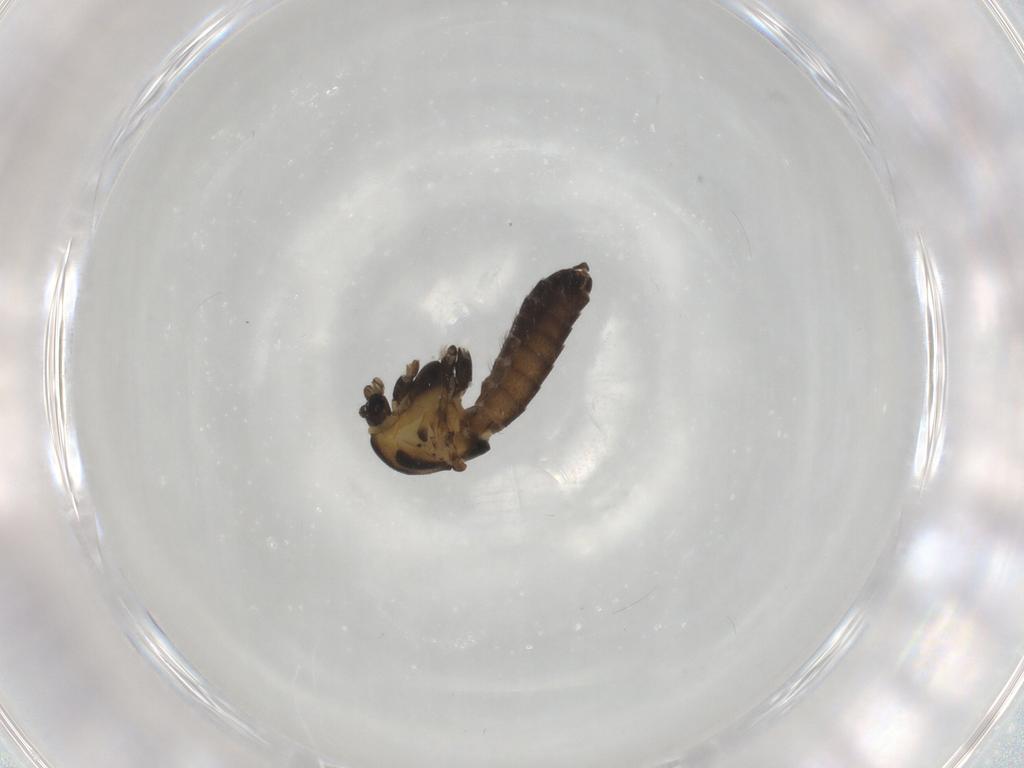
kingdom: Animalia
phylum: Arthropoda
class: Insecta
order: Diptera
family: Chironomidae
